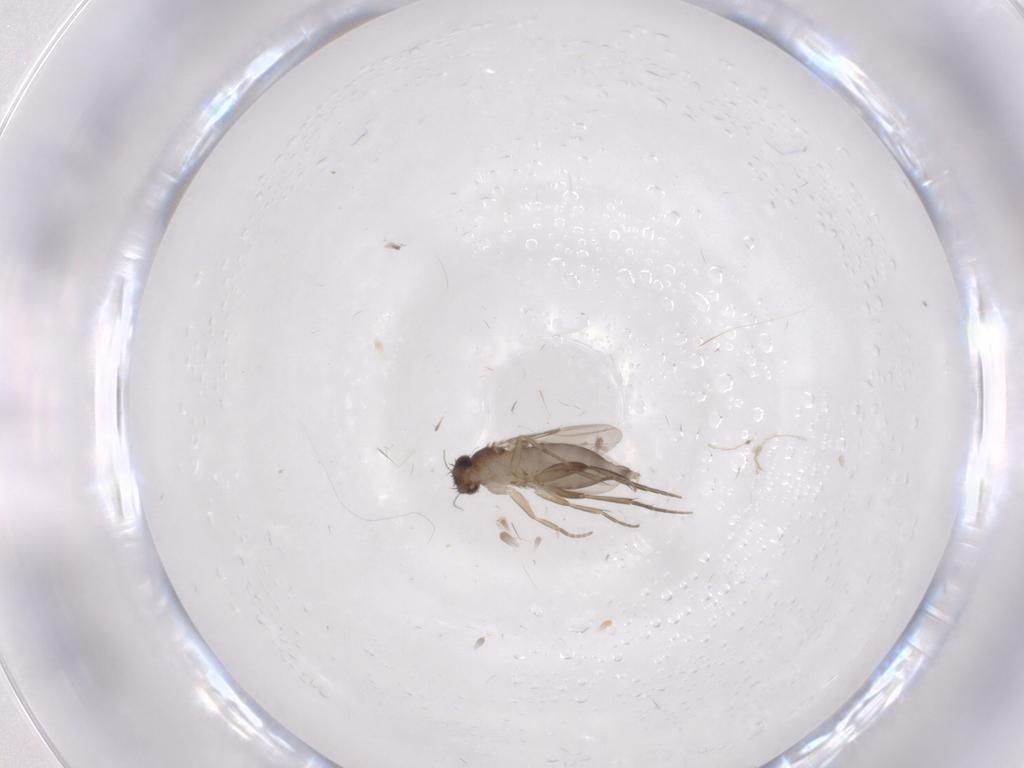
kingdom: Animalia
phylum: Arthropoda
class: Insecta
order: Diptera
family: Phoridae
